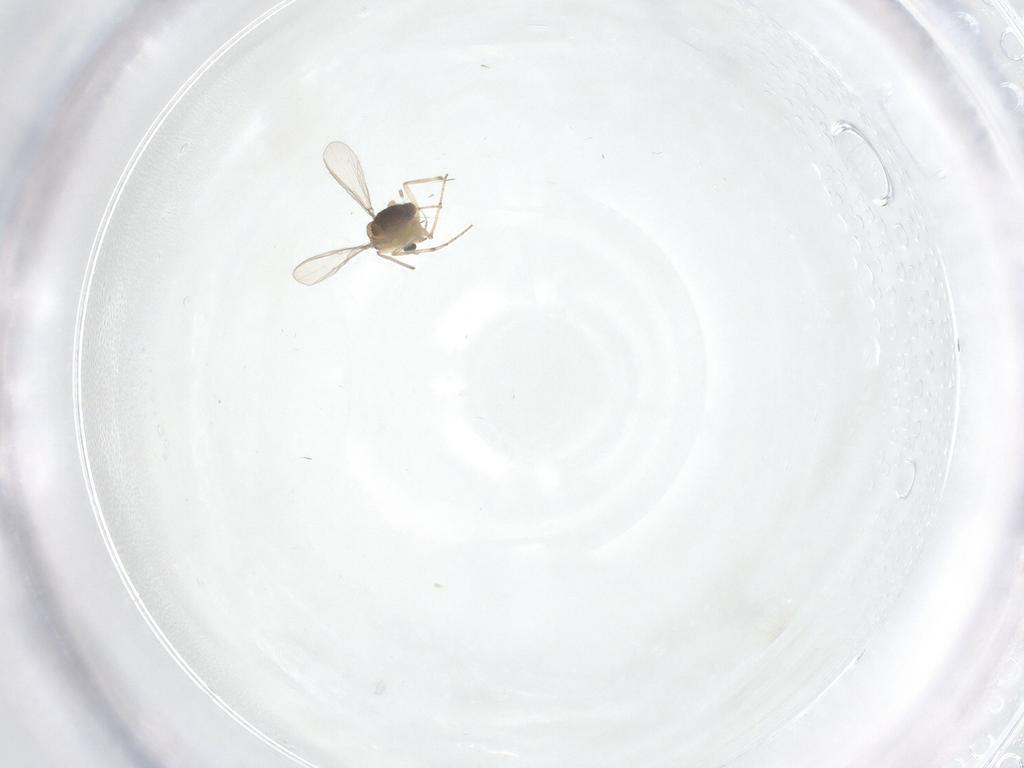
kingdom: Animalia
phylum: Arthropoda
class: Insecta
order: Diptera
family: Chironomidae
